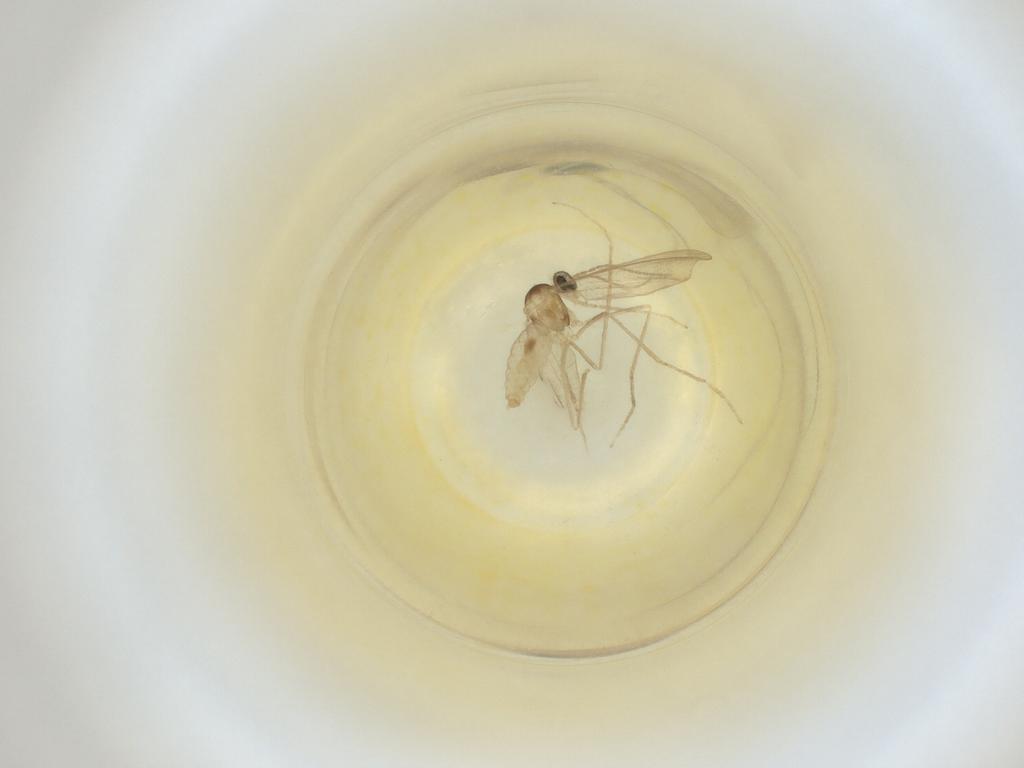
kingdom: Animalia
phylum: Arthropoda
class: Insecta
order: Diptera
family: Cecidomyiidae
